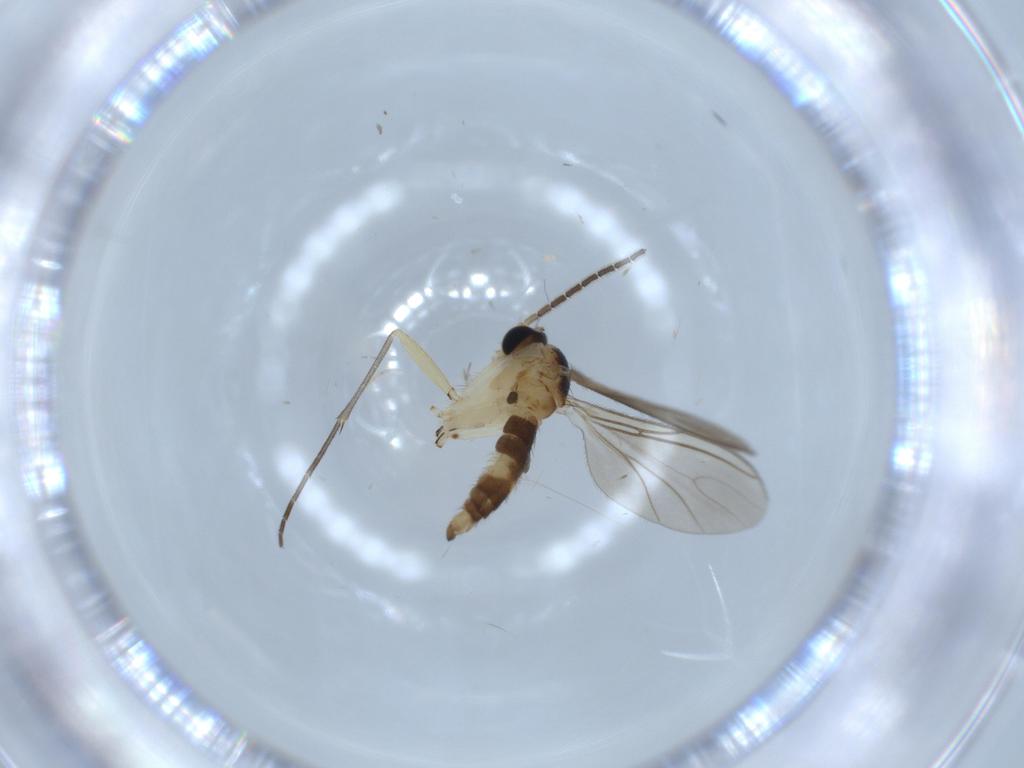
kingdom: Animalia
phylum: Arthropoda
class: Insecta
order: Diptera
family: Sciaridae
